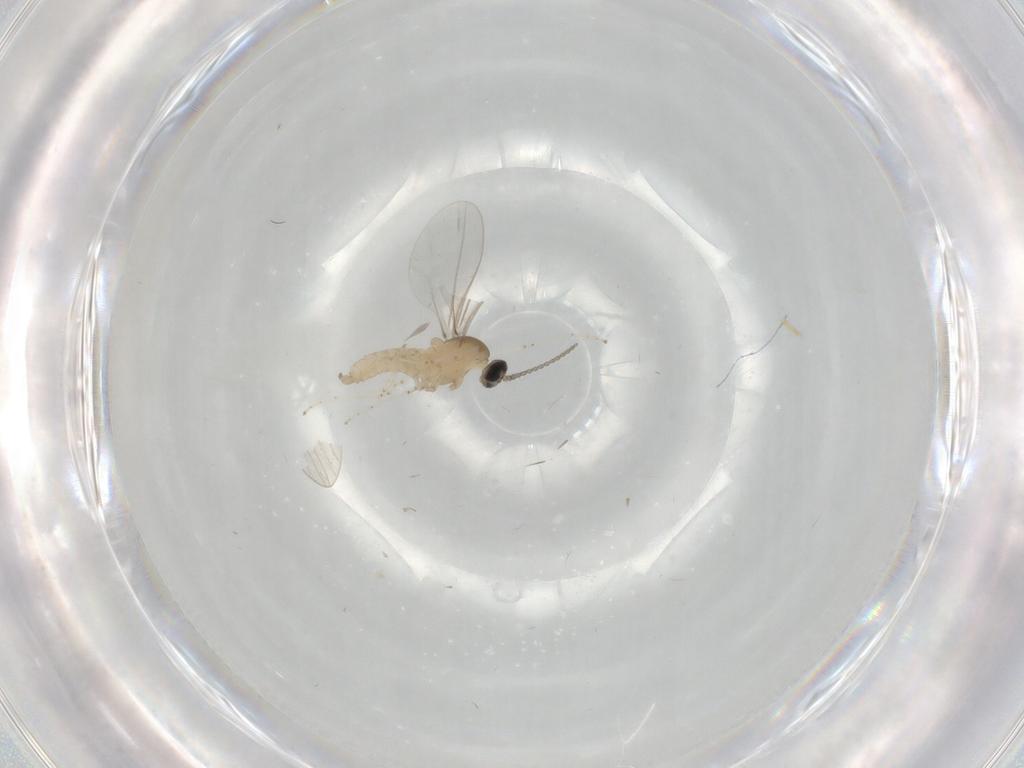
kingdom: Animalia
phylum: Arthropoda
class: Insecta
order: Diptera
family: Cecidomyiidae
